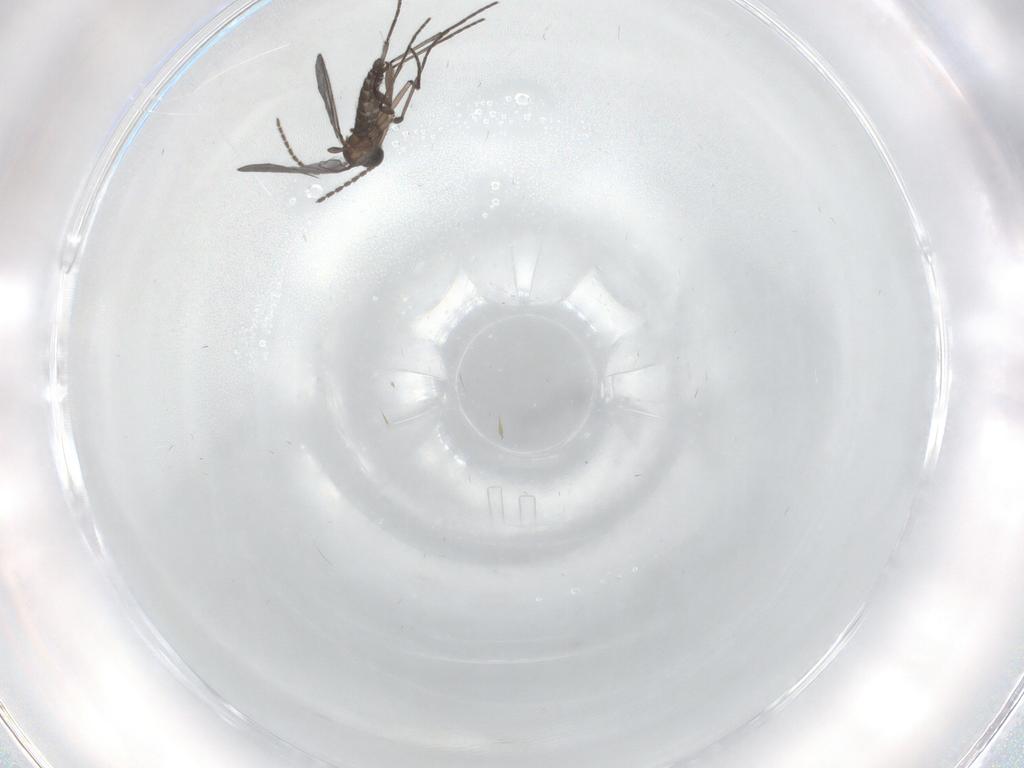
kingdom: Animalia
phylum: Arthropoda
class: Insecta
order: Diptera
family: Sciaridae
